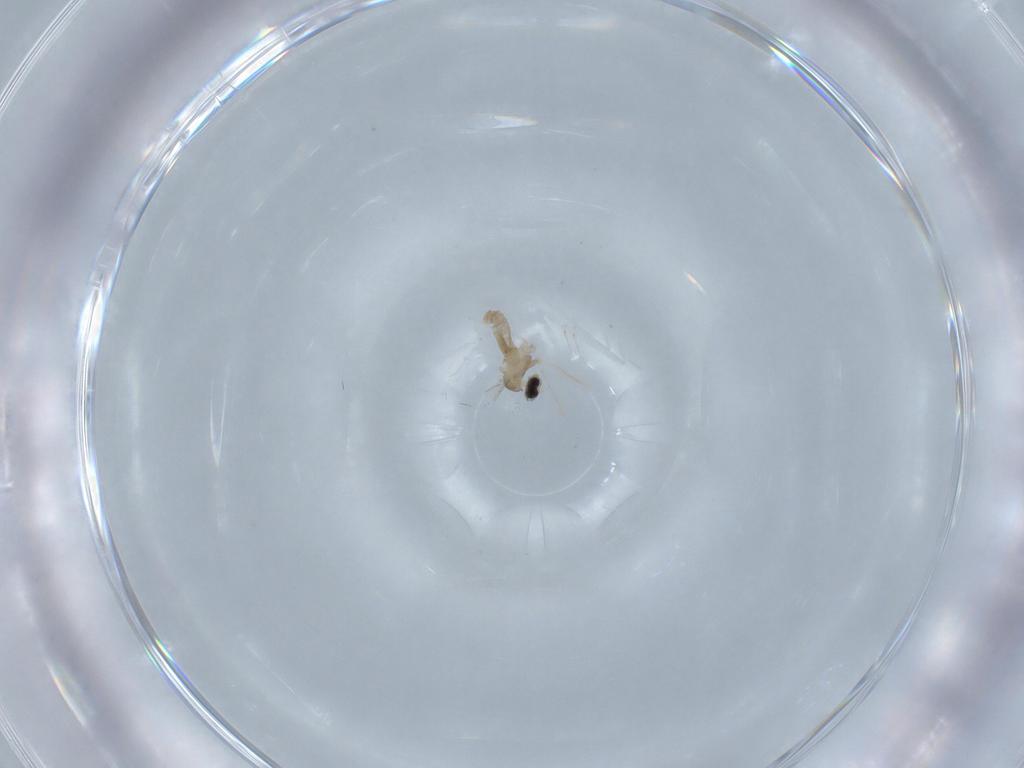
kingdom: Animalia
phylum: Arthropoda
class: Insecta
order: Diptera
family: Cecidomyiidae
